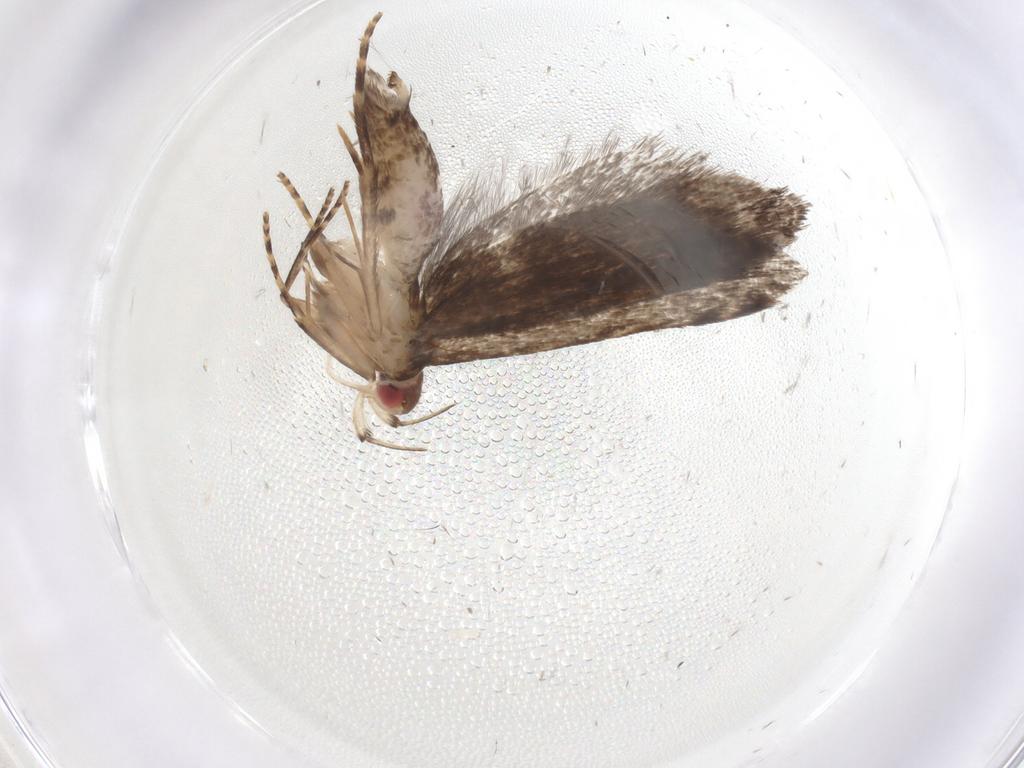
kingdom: Animalia
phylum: Arthropoda
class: Insecta
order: Lepidoptera
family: Gelechiidae
